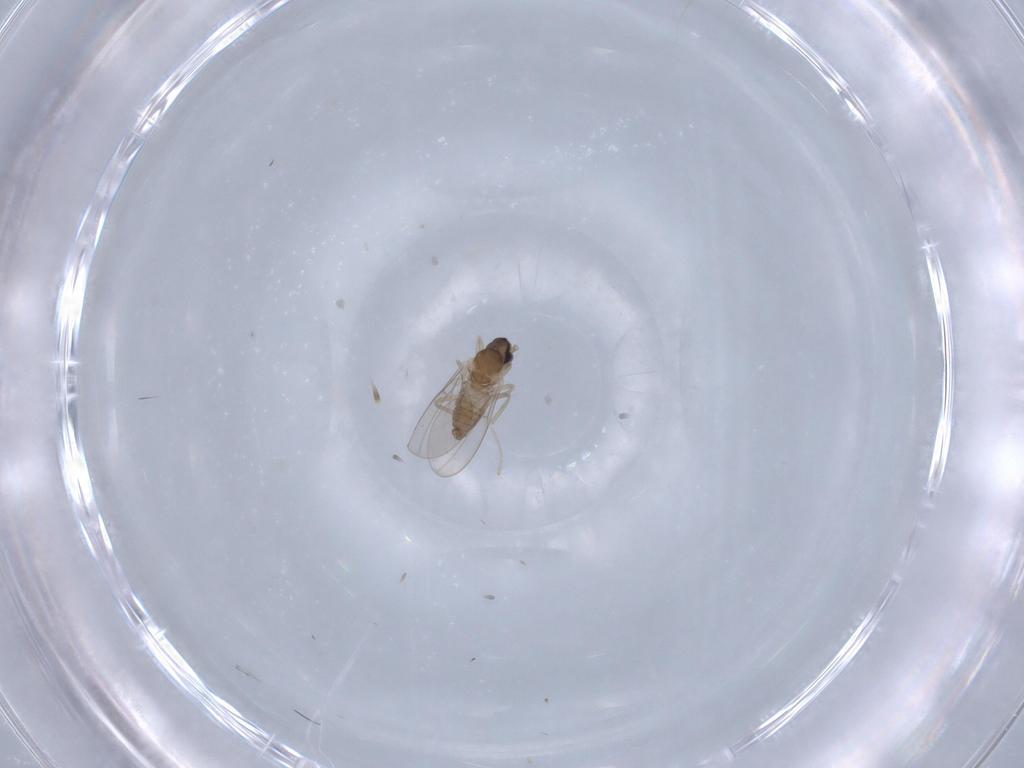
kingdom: Animalia
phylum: Arthropoda
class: Insecta
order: Diptera
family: Cecidomyiidae
